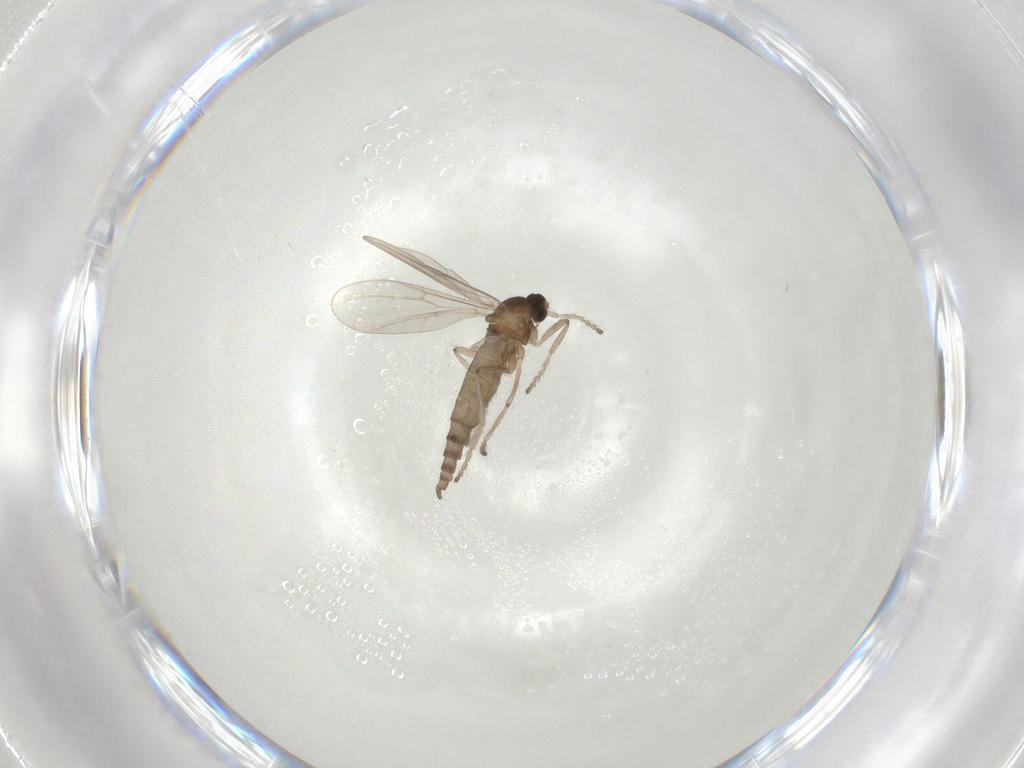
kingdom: Animalia
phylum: Arthropoda
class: Insecta
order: Diptera
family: Cecidomyiidae
